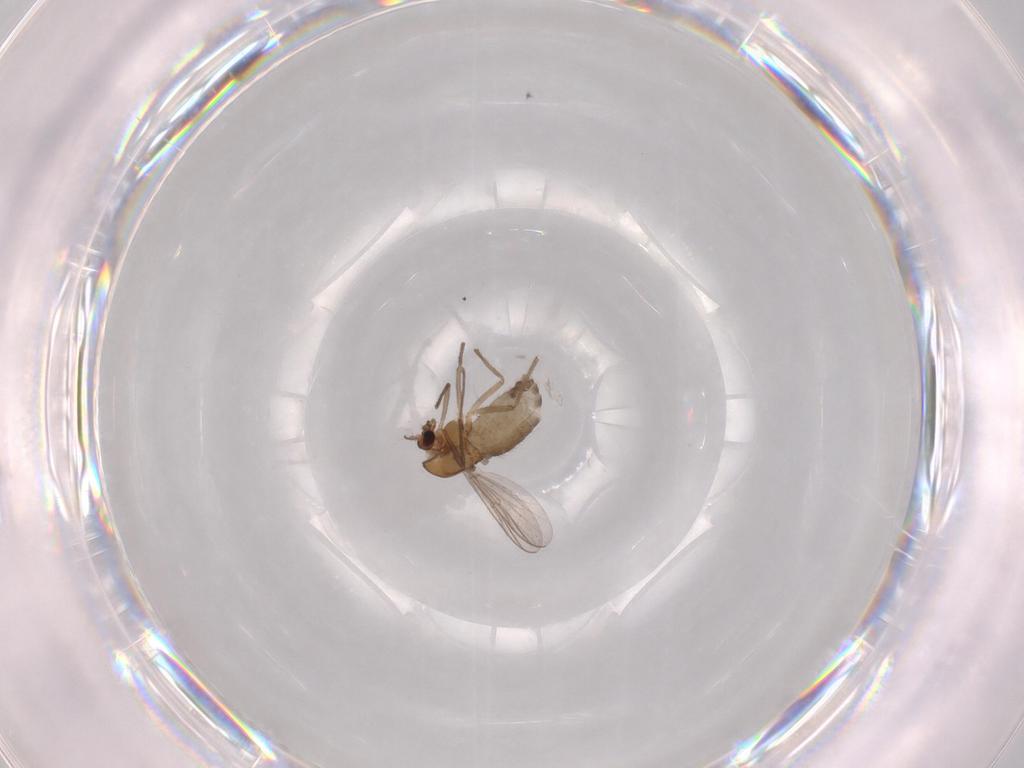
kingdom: Animalia
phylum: Arthropoda
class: Insecta
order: Diptera
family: Chironomidae
